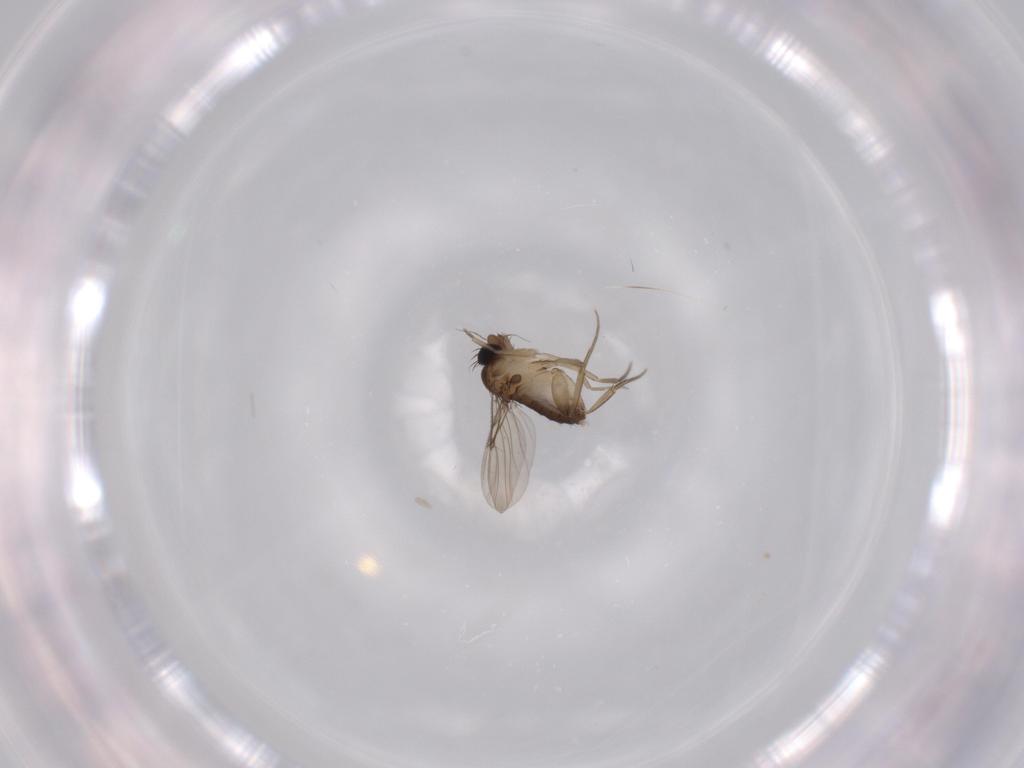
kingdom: Animalia
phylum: Arthropoda
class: Insecta
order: Diptera
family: Phoridae
